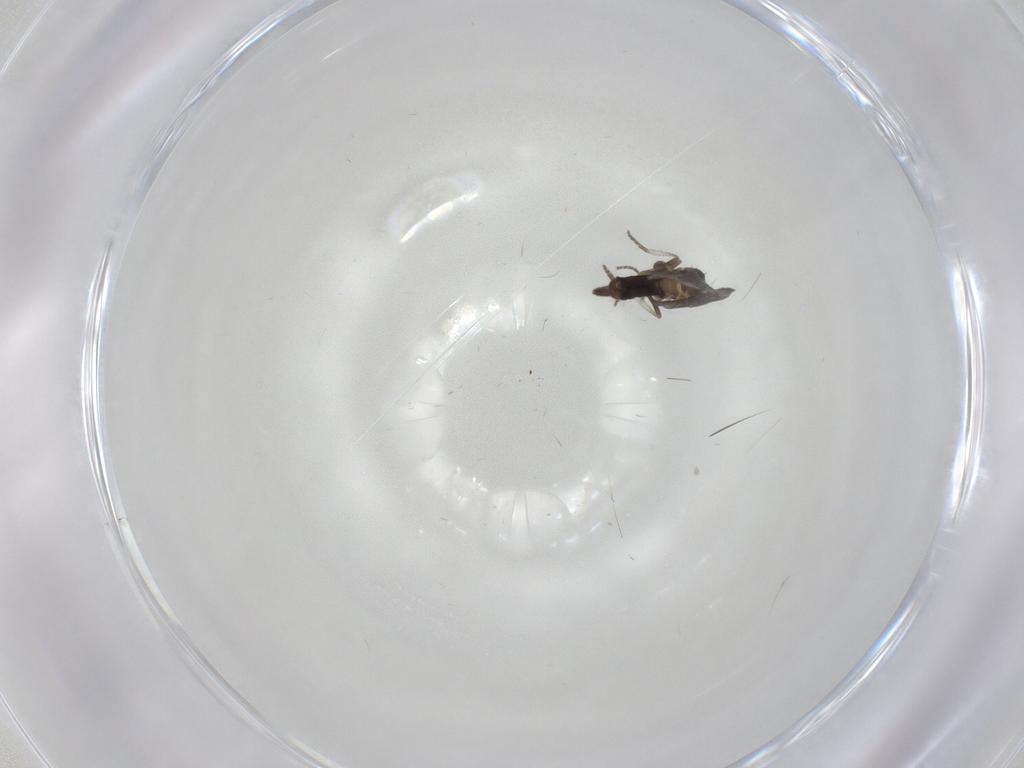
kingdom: Animalia
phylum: Arthropoda
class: Insecta
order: Diptera
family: Phoridae
